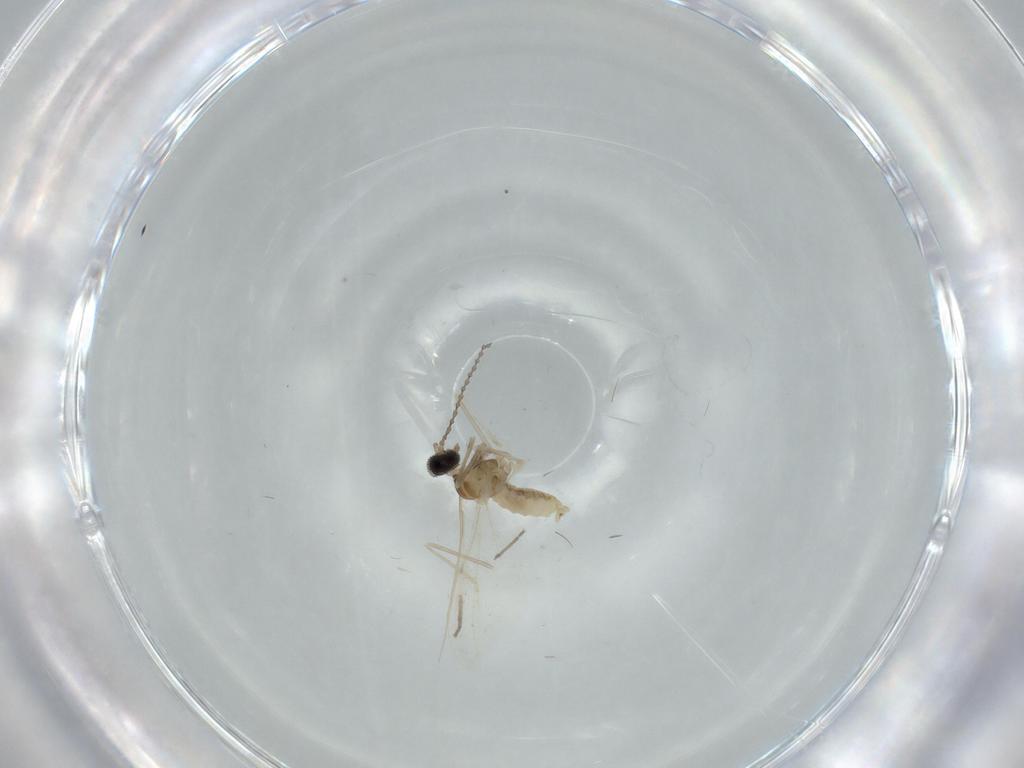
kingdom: Animalia
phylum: Arthropoda
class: Insecta
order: Diptera
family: Cecidomyiidae
